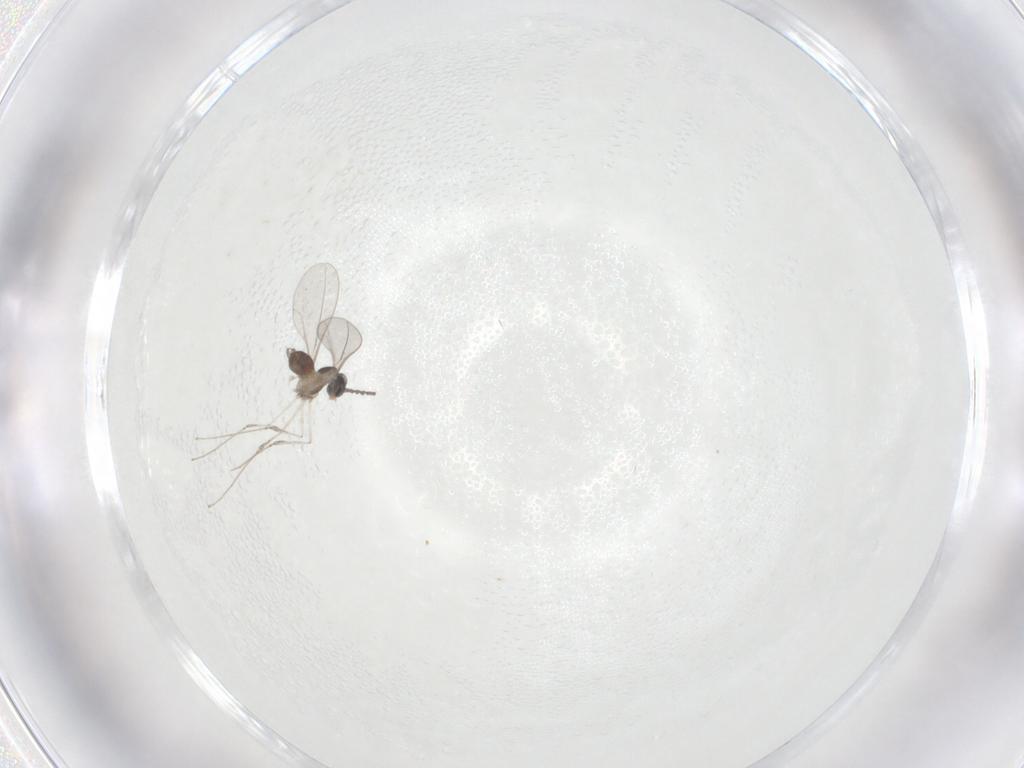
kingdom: Animalia
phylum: Arthropoda
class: Insecta
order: Diptera
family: Cecidomyiidae
